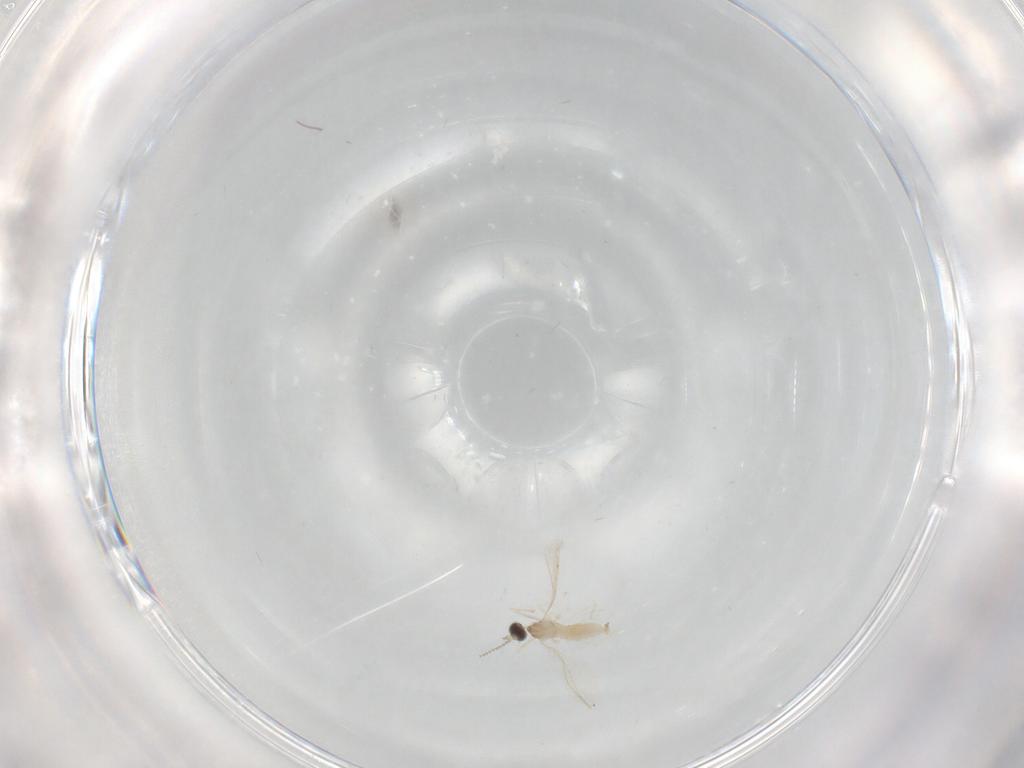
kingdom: Animalia
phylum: Arthropoda
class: Insecta
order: Diptera
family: Cecidomyiidae
